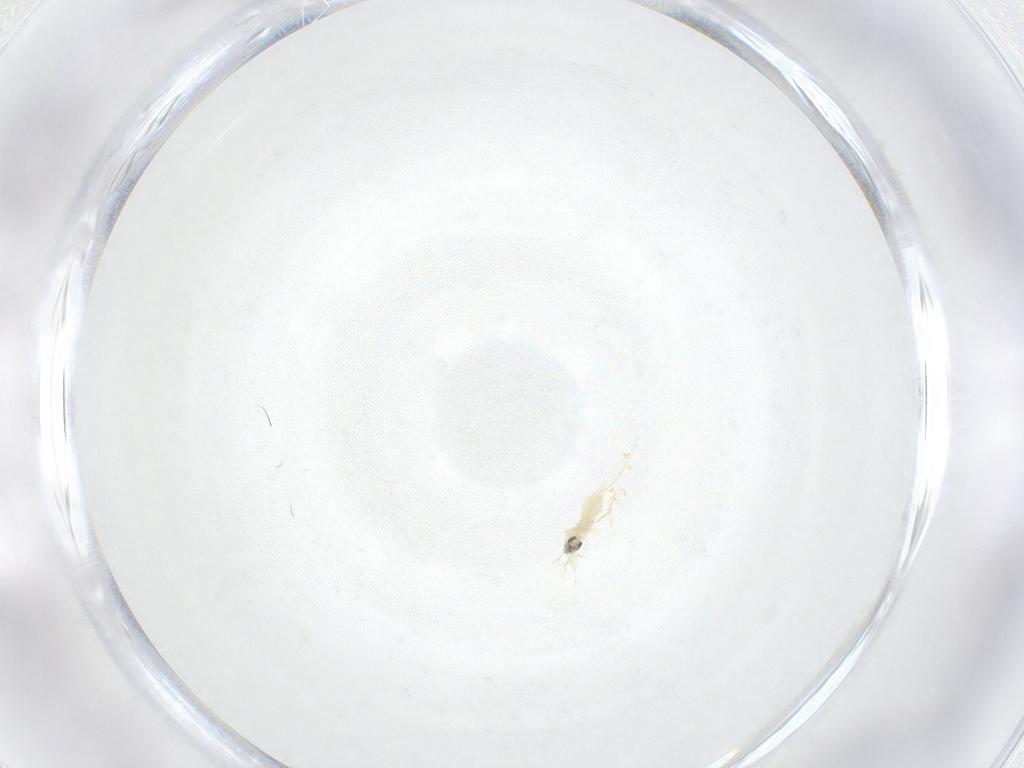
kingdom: Animalia
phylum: Arthropoda
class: Insecta
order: Diptera
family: Cecidomyiidae
